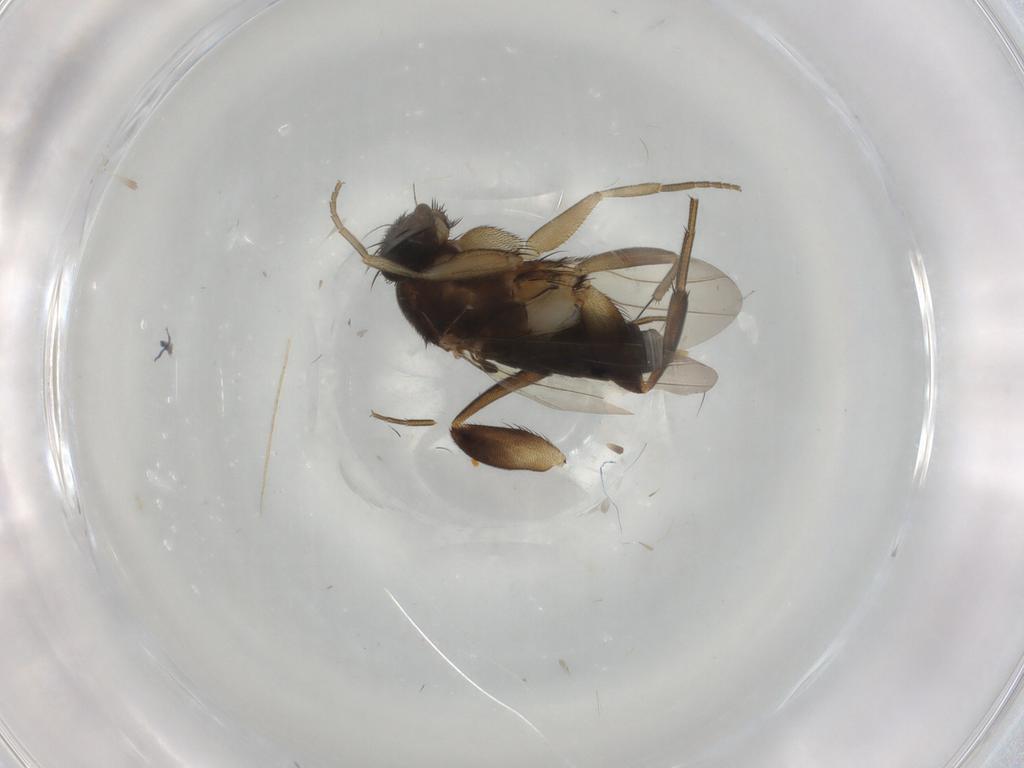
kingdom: Animalia
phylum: Arthropoda
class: Insecta
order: Diptera
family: Phoridae
